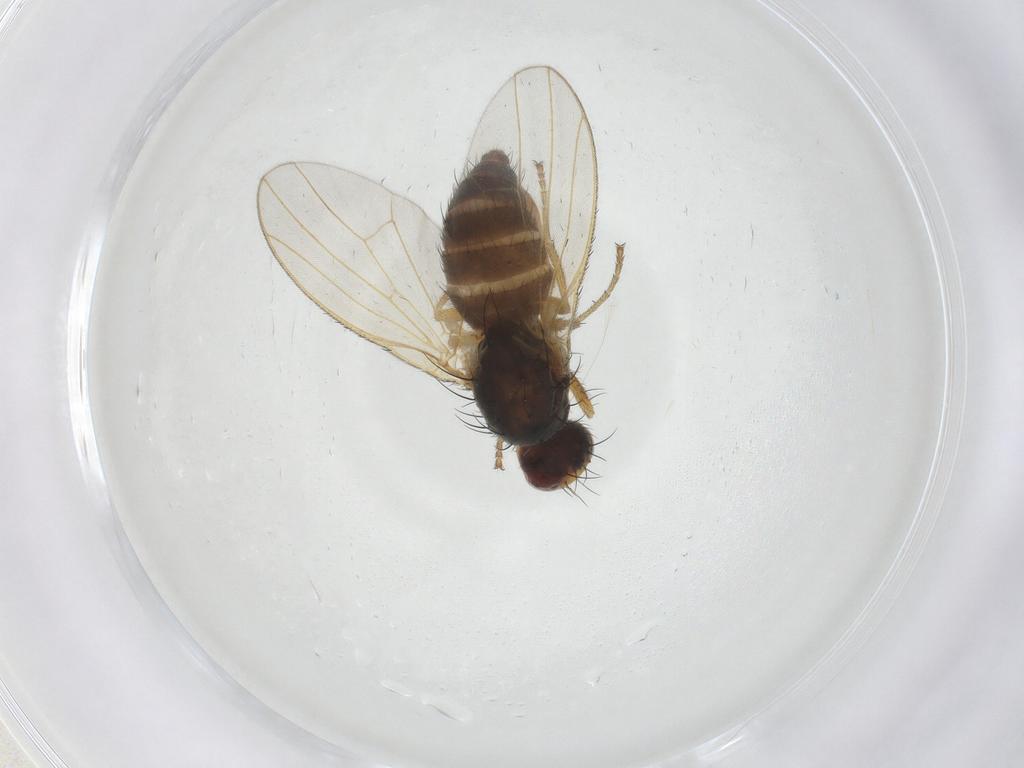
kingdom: Animalia
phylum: Arthropoda
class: Insecta
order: Diptera
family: Heleomyzidae
